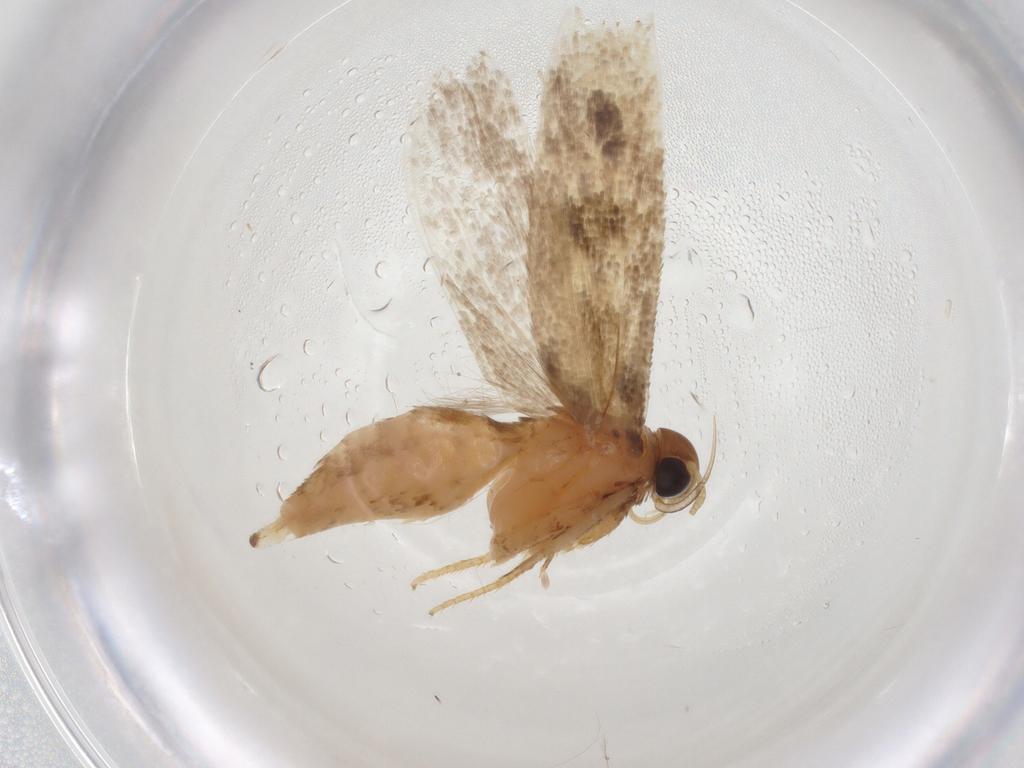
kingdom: Animalia
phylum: Arthropoda
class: Insecta
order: Lepidoptera
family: Gelechiidae
